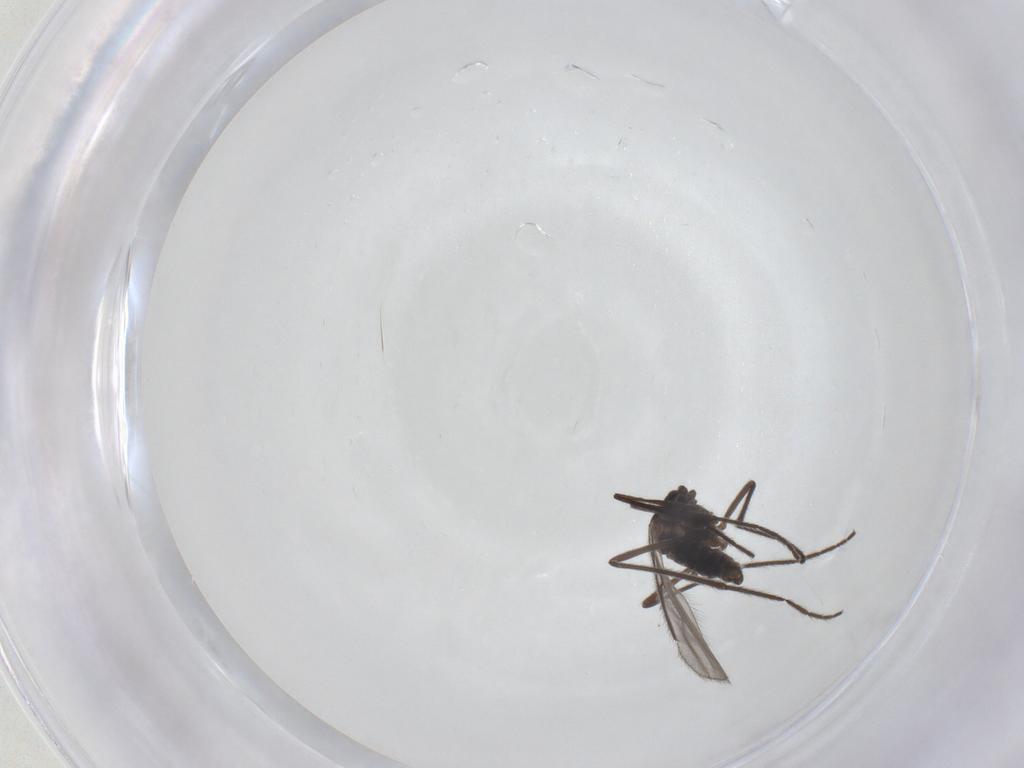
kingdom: Animalia
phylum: Arthropoda
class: Insecta
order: Diptera
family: Cecidomyiidae
